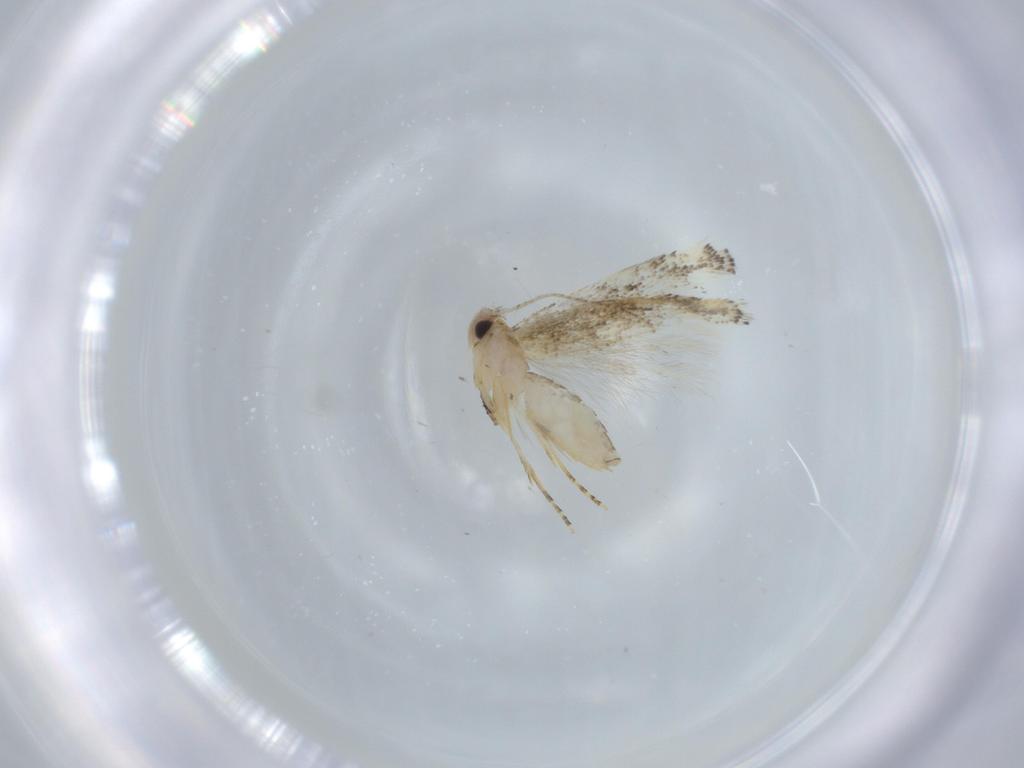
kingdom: Animalia
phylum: Arthropoda
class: Insecta
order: Lepidoptera
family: Bucculatricidae
